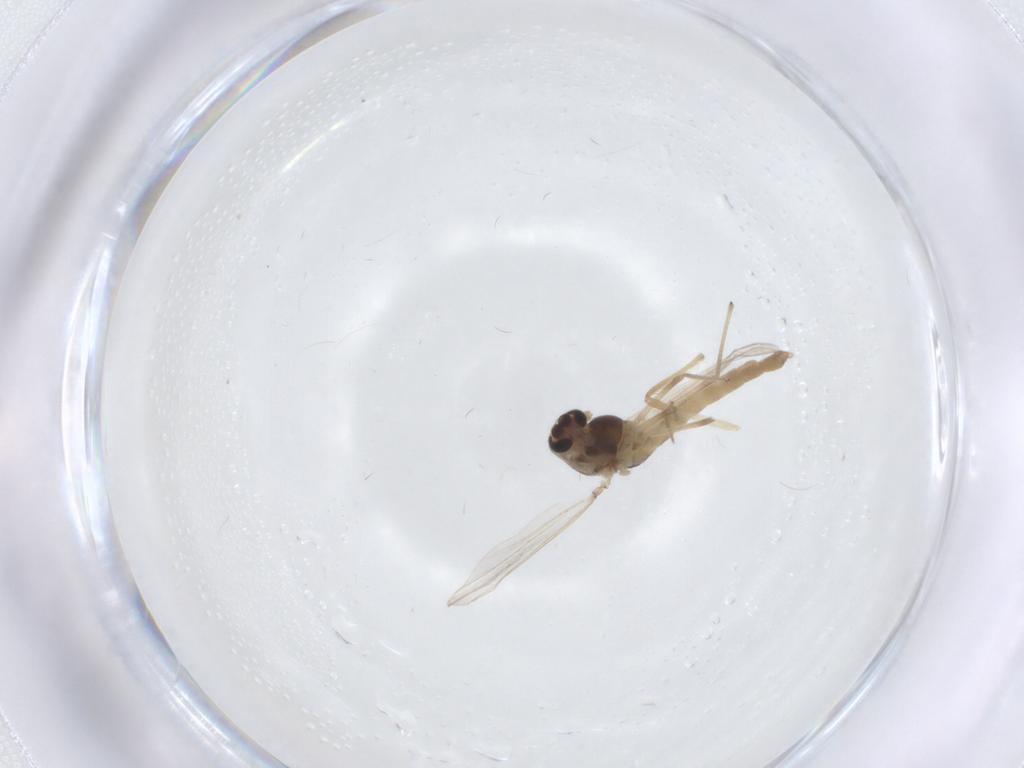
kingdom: Animalia
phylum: Arthropoda
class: Insecta
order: Diptera
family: Chironomidae
